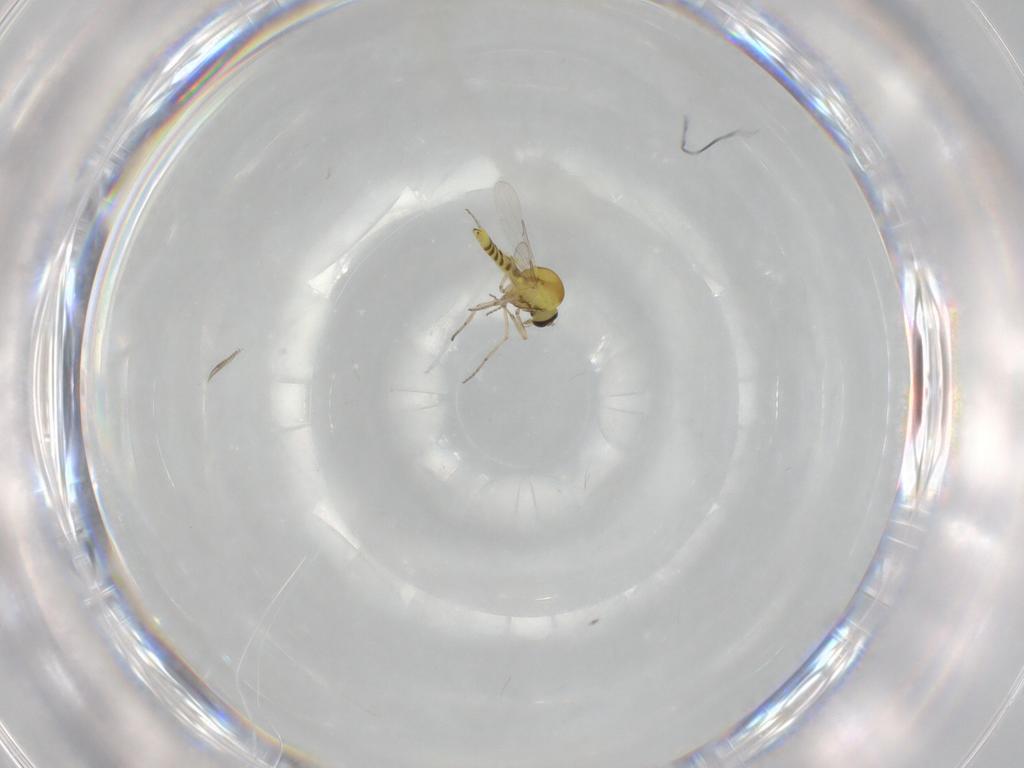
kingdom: Animalia
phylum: Arthropoda
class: Insecta
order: Diptera
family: Ceratopogonidae
